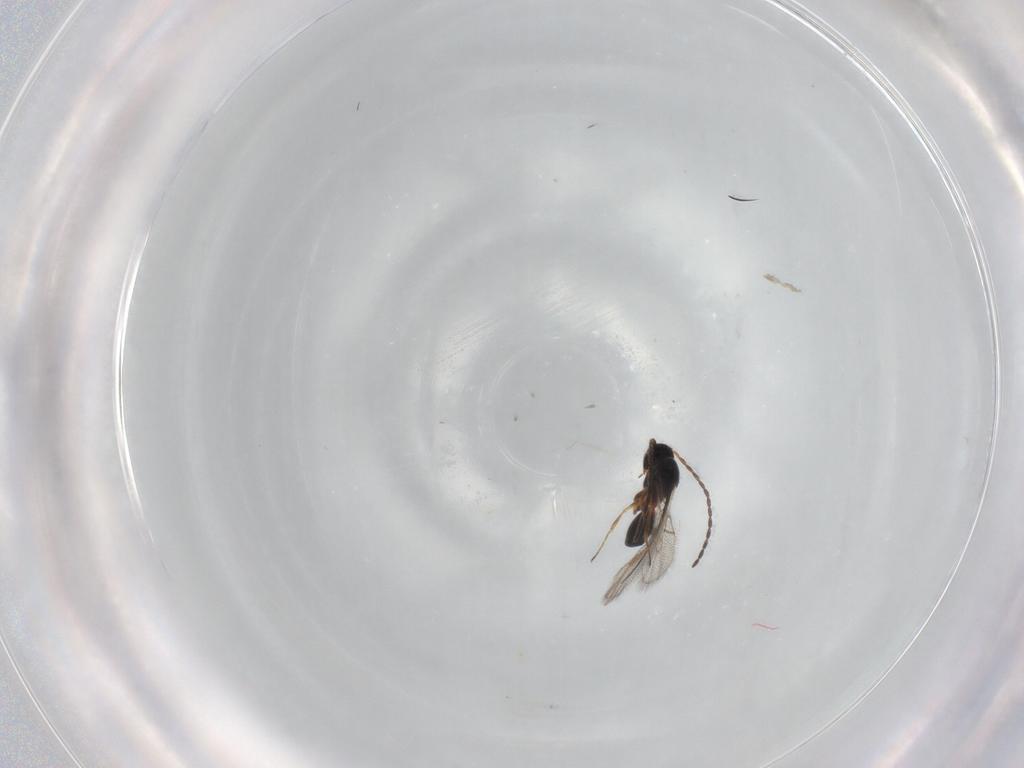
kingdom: Animalia
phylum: Arthropoda
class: Insecta
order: Hymenoptera
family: Figitidae
